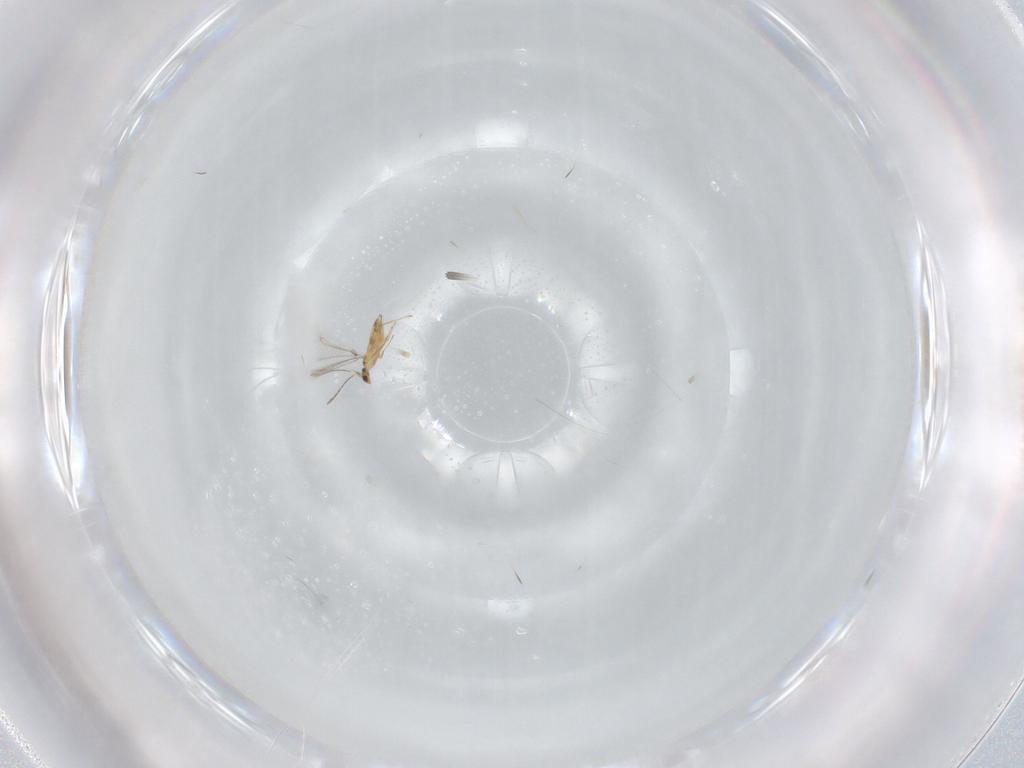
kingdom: Animalia
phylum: Arthropoda
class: Insecta
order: Hymenoptera
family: Mymaridae
